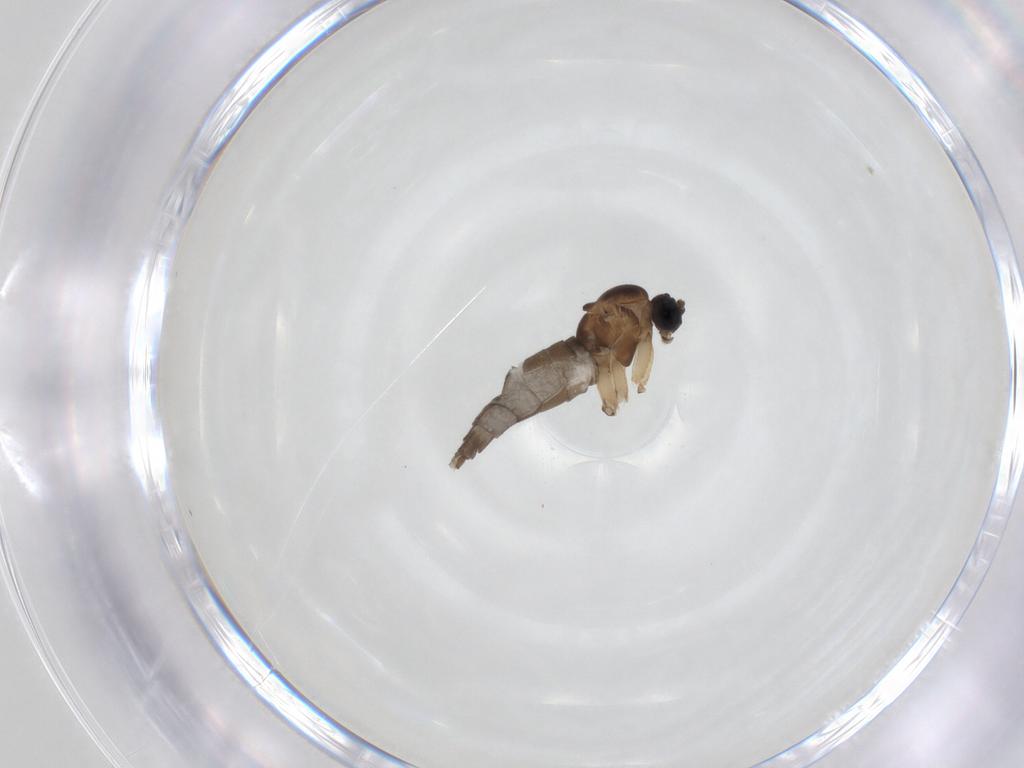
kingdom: Animalia
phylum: Arthropoda
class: Insecta
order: Diptera
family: Sciaridae
